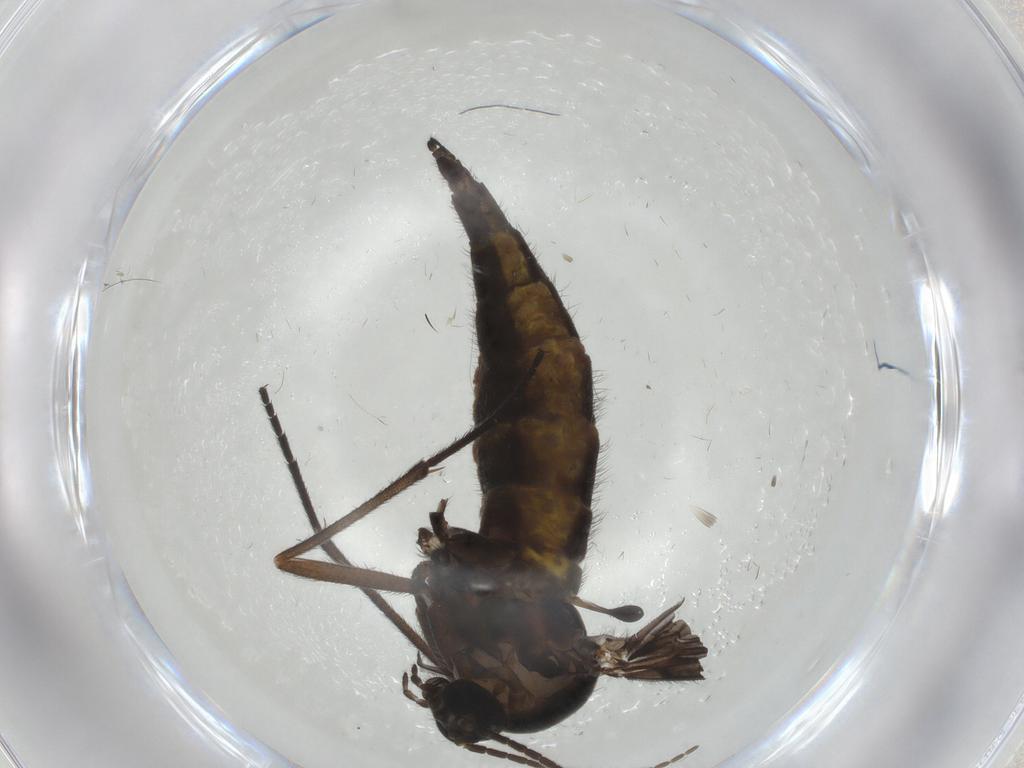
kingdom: Animalia
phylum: Arthropoda
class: Insecta
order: Diptera
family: Sciaridae
